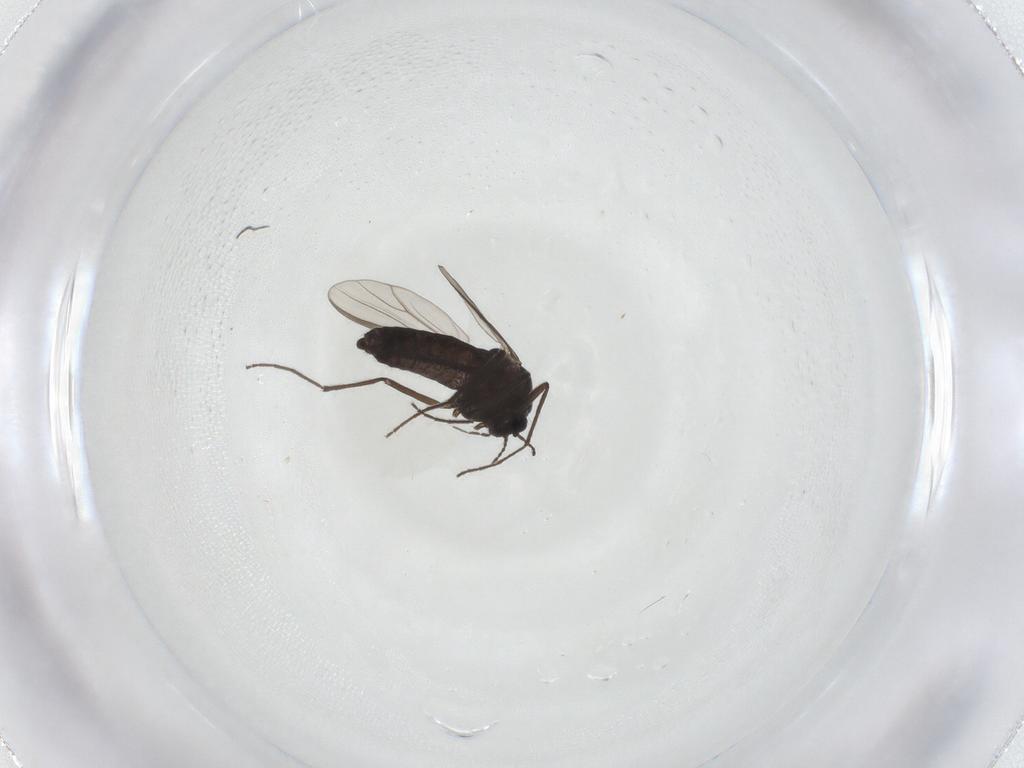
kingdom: Animalia
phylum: Arthropoda
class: Insecta
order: Diptera
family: Chironomidae
